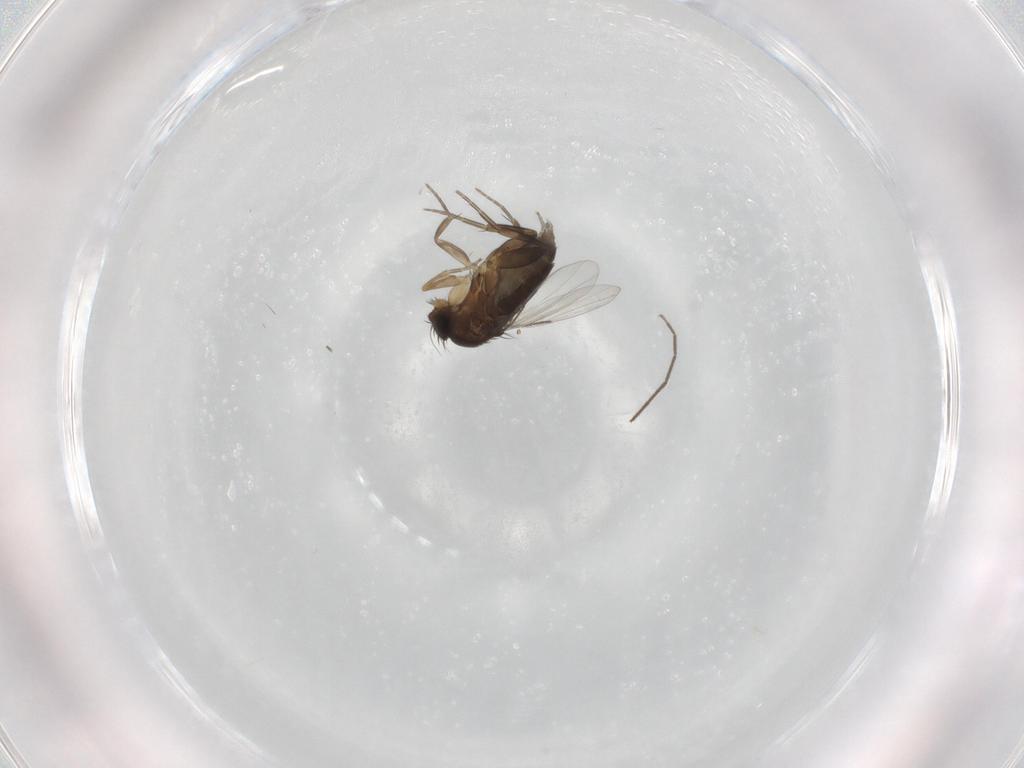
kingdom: Animalia
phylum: Arthropoda
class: Insecta
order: Diptera
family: Phoridae
